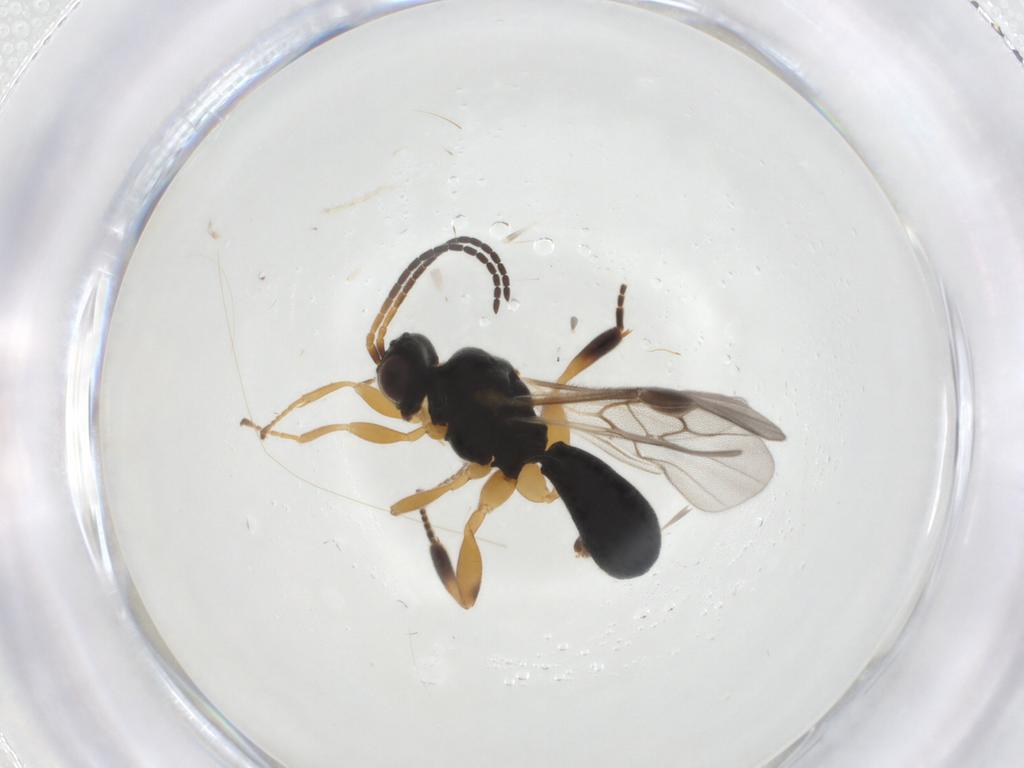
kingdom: Animalia
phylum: Arthropoda
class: Insecta
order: Hymenoptera
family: Braconidae
